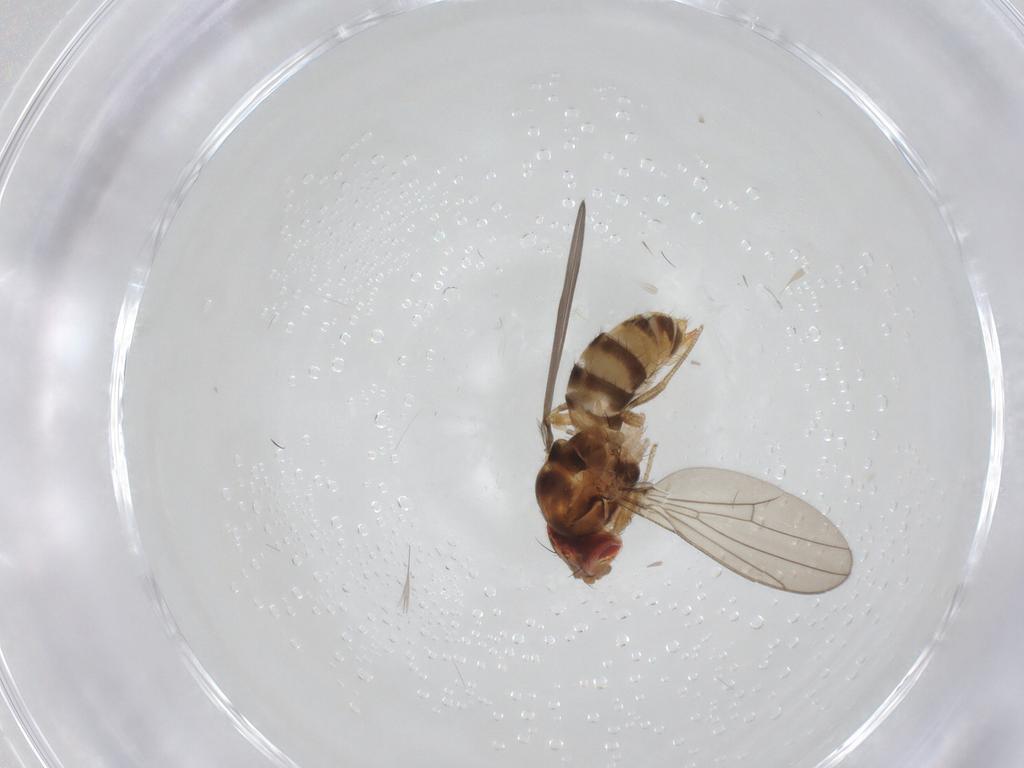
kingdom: Animalia
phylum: Arthropoda
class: Insecta
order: Diptera
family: Drosophilidae
